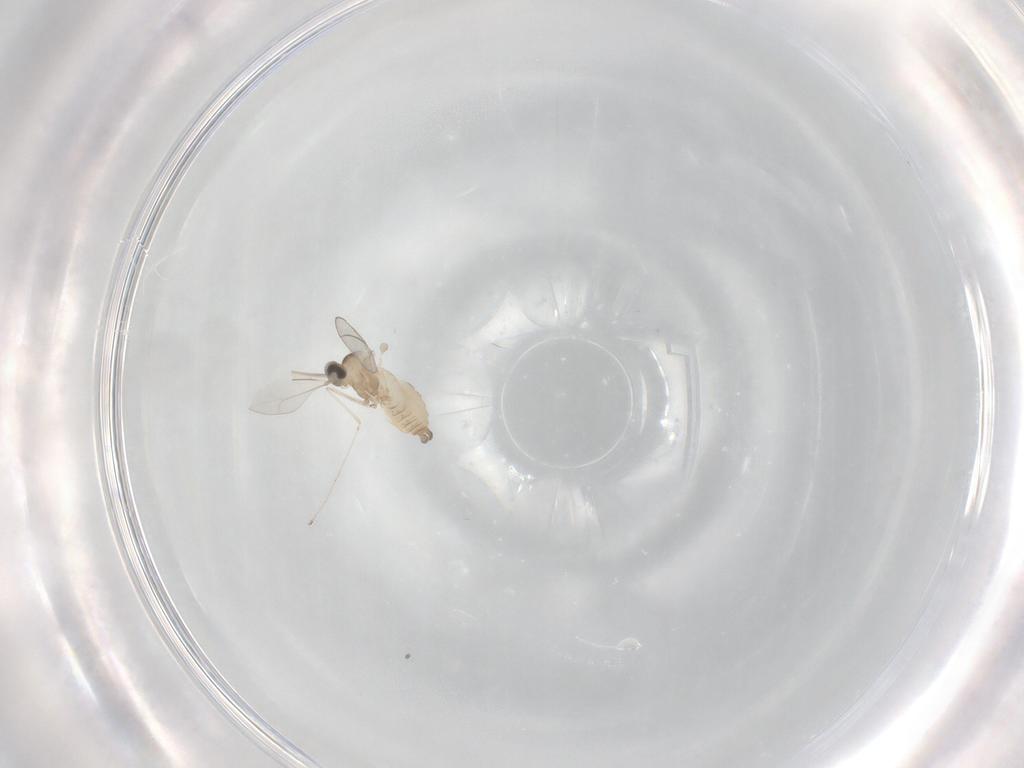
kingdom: Animalia
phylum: Arthropoda
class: Insecta
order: Diptera
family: Cecidomyiidae
